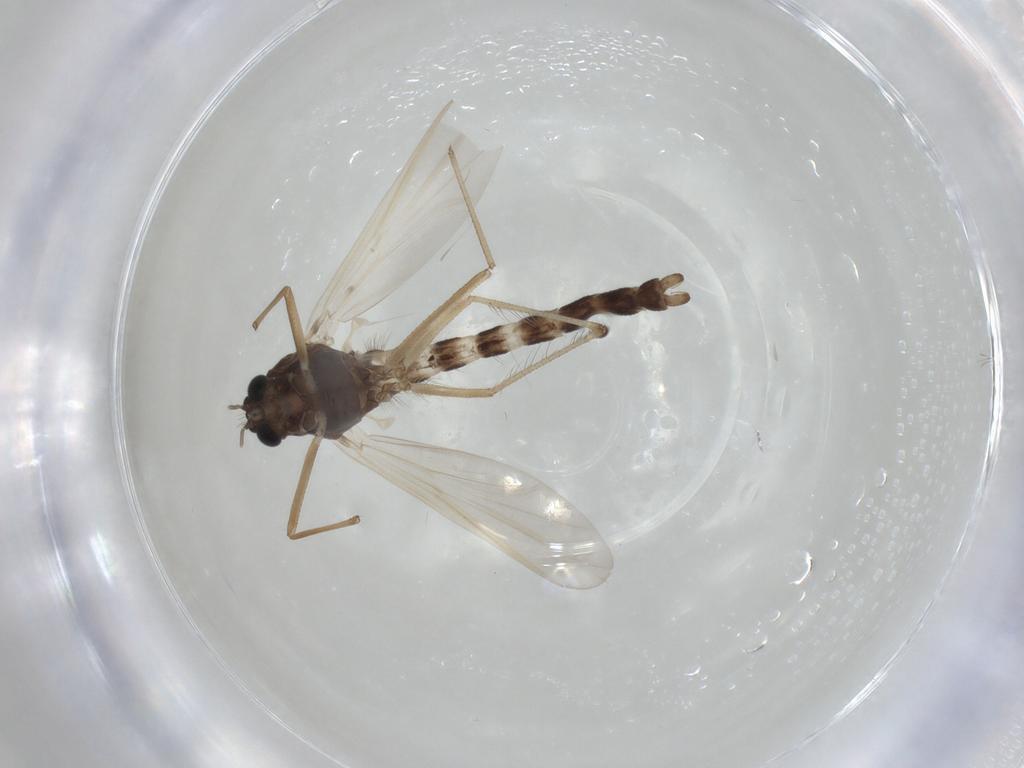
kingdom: Animalia
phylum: Arthropoda
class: Insecta
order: Diptera
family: Chironomidae
